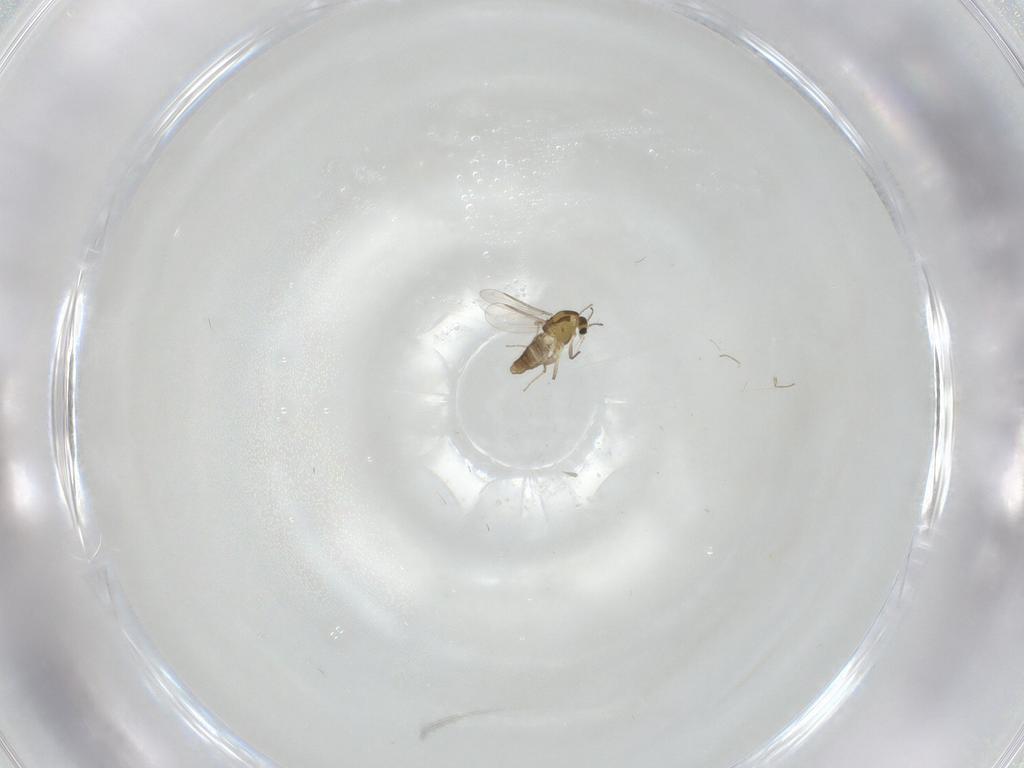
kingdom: Animalia
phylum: Arthropoda
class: Insecta
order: Diptera
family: Chironomidae
